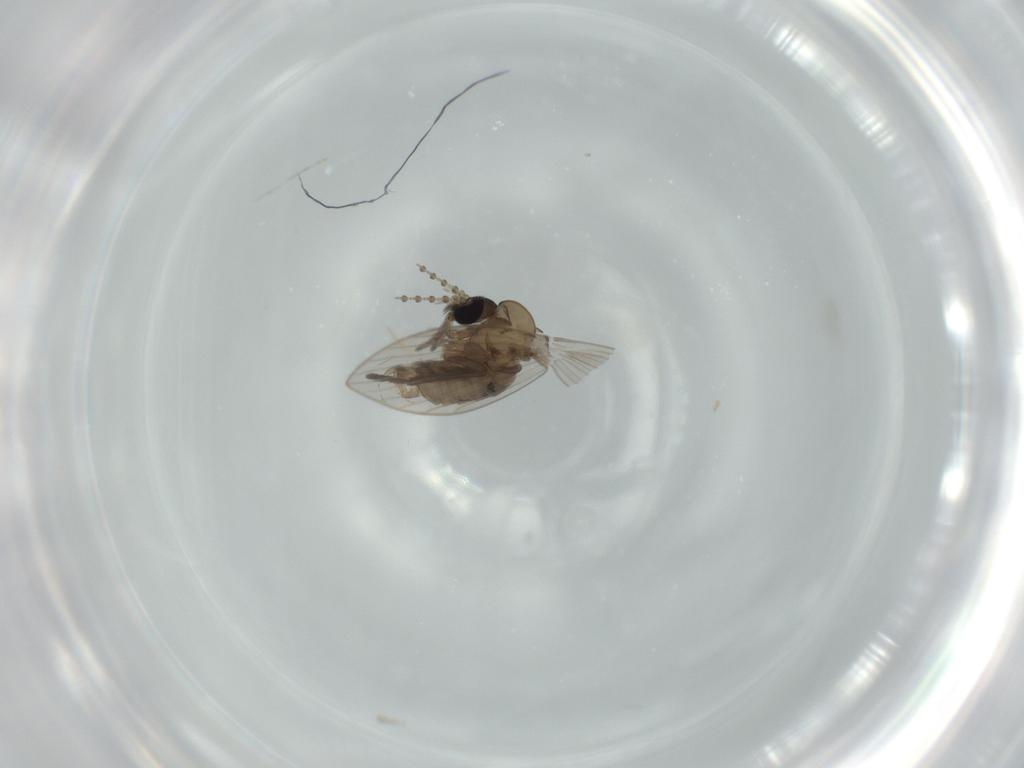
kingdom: Animalia
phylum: Arthropoda
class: Insecta
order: Diptera
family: Psychodidae
